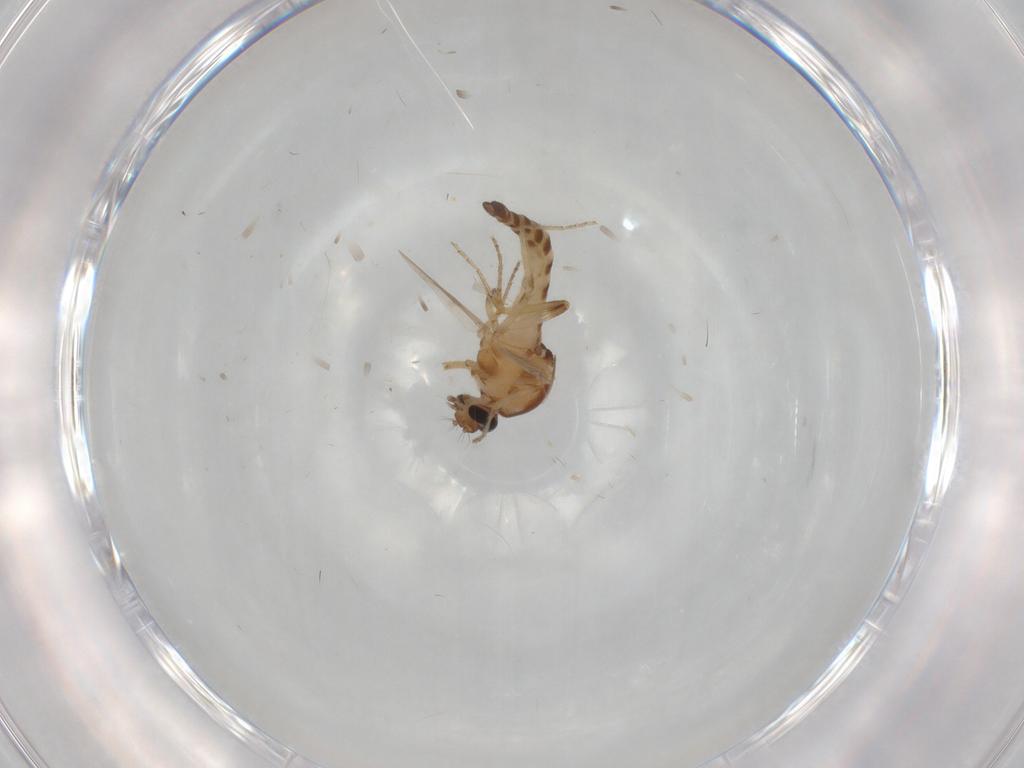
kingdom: Animalia
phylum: Arthropoda
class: Insecta
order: Diptera
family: Ceratopogonidae
